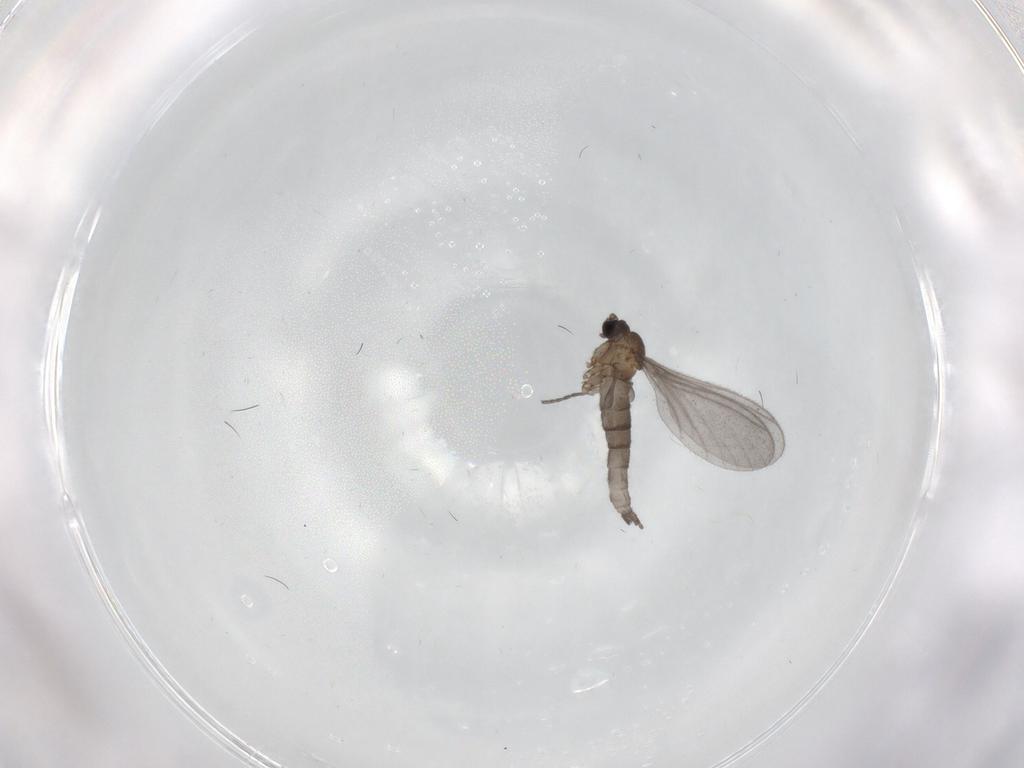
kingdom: Animalia
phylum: Arthropoda
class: Insecta
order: Diptera
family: Sciaridae
